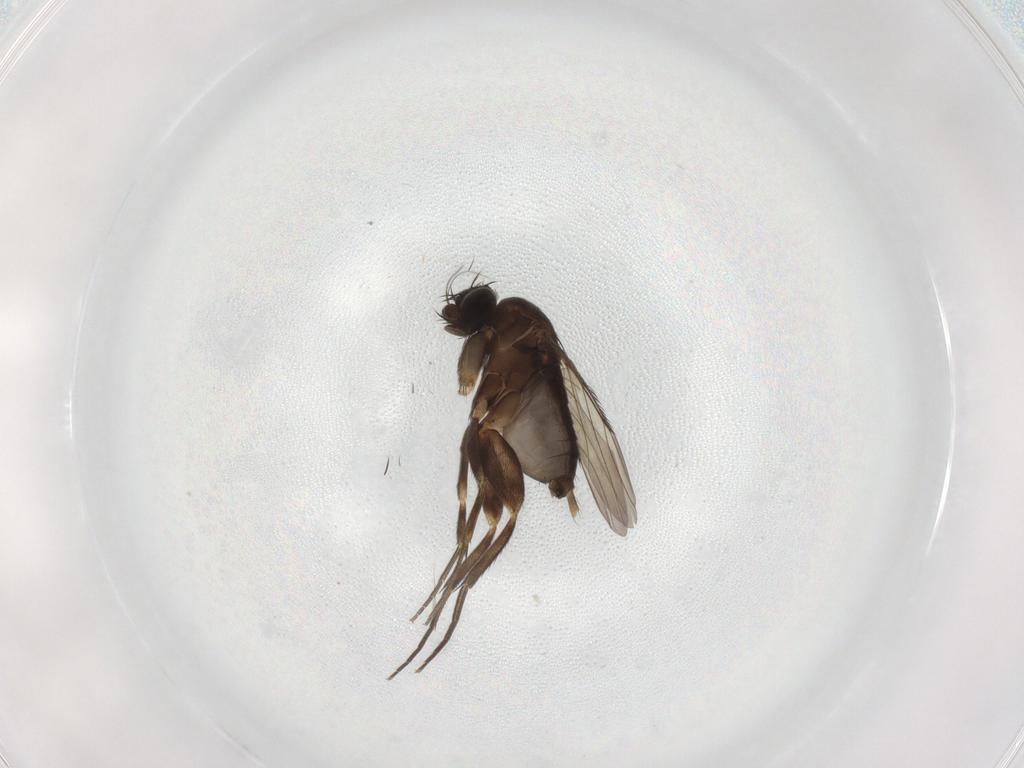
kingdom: Animalia
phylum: Arthropoda
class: Insecta
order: Diptera
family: Phoridae
